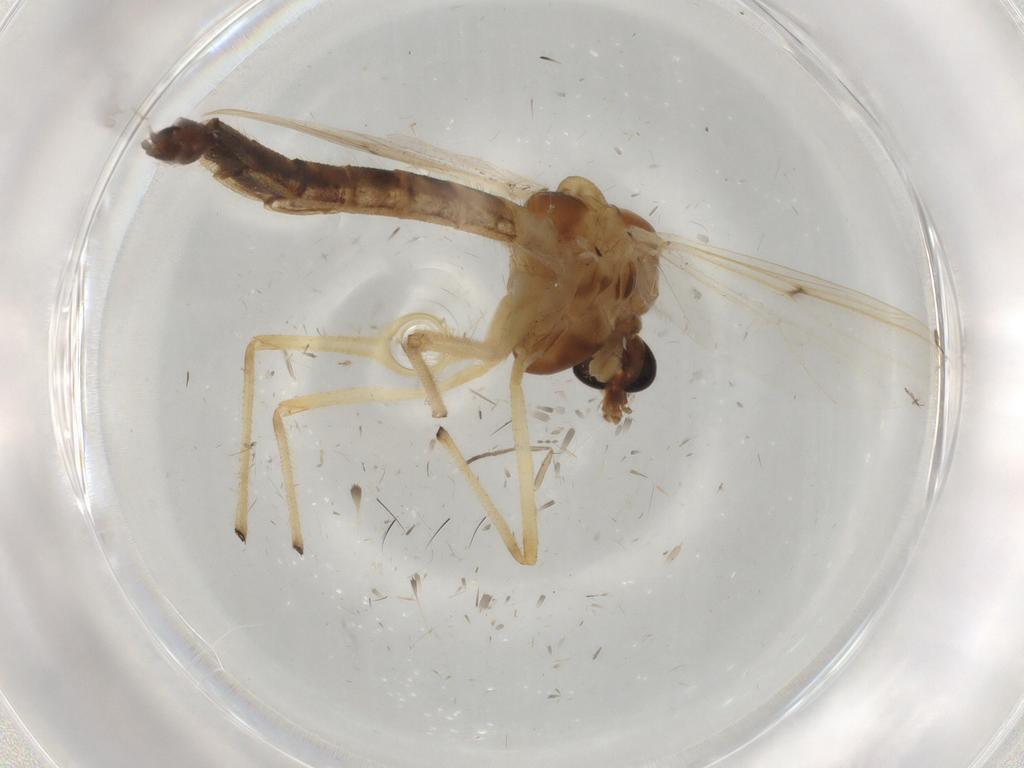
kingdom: Animalia
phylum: Arthropoda
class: Insecta
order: Diptera
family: Chironomidae
